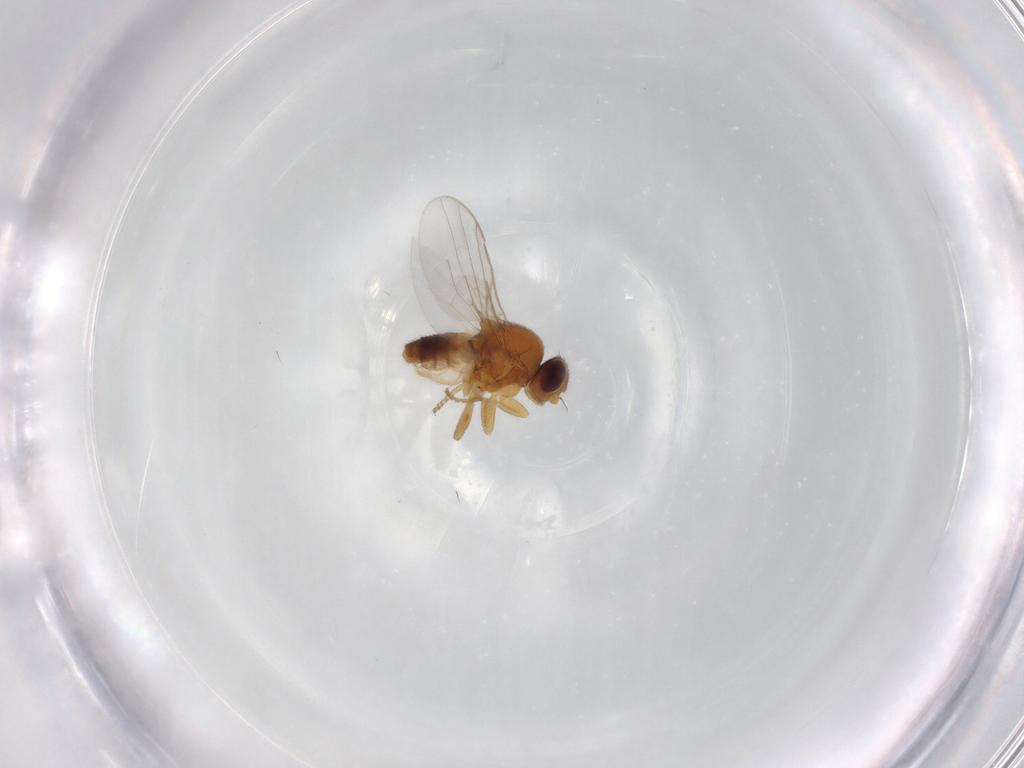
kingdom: Animalia
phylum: Arthropoda
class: Insecta
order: Diptera
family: Chloropidae
